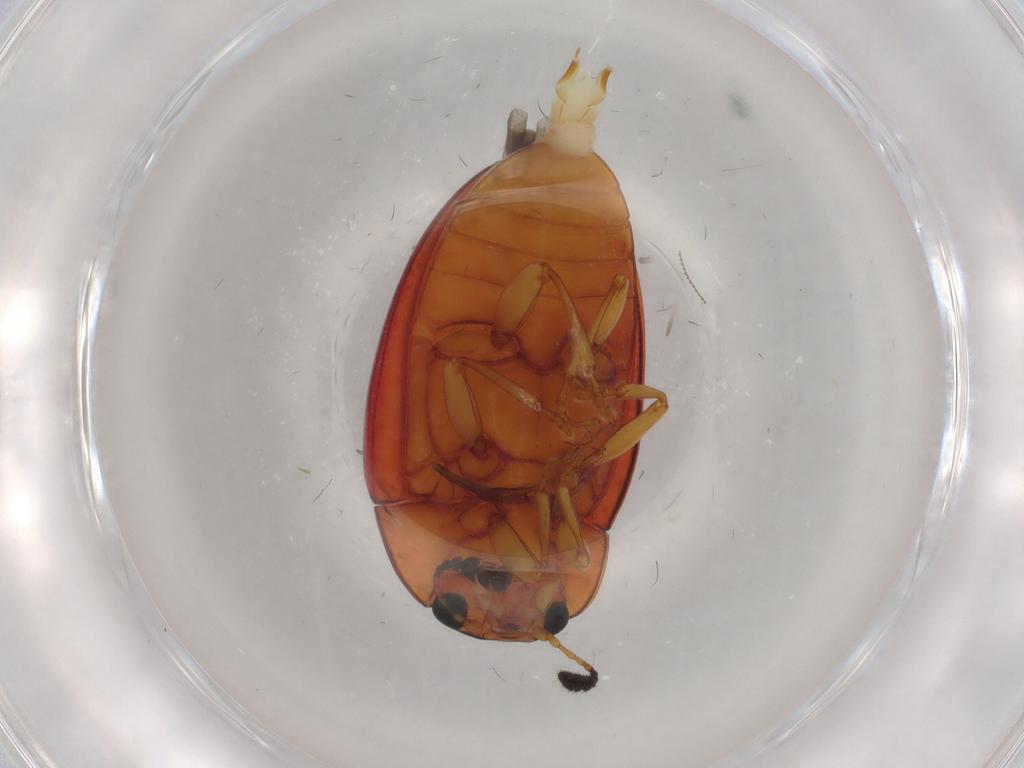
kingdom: Animalia
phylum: Arthropoda
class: Insecta
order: Coleoptera
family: Erotylidae
